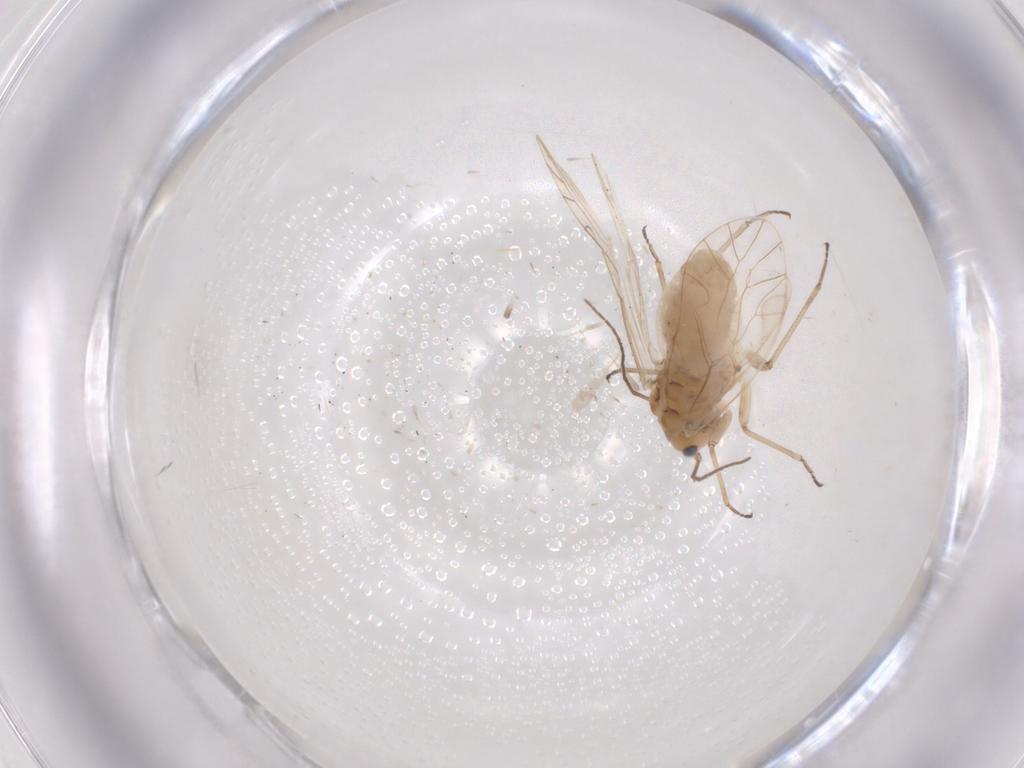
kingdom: Animalia
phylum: Arthropoda
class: Insecta
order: Psocodea
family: Elipsocidae
